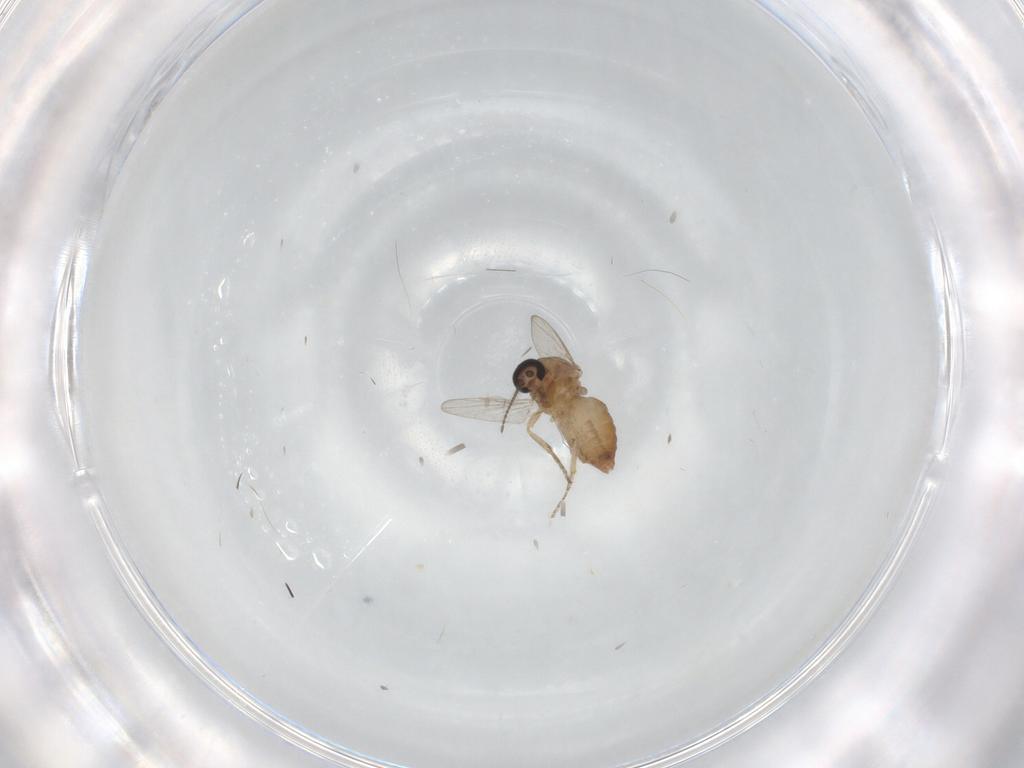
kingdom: Animalia
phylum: Arthropoda
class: Insecta
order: Diptera
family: Ceratopogonidae
